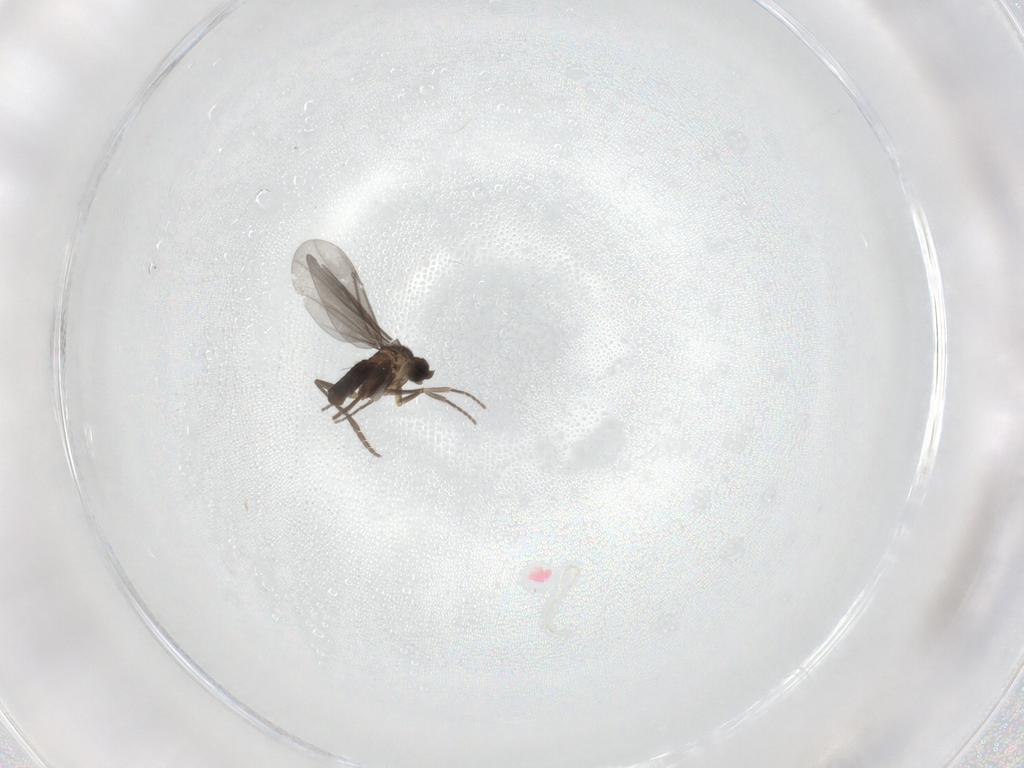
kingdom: Animalia
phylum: Arthropoda
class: Insecta
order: Diptera
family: Phoridae
